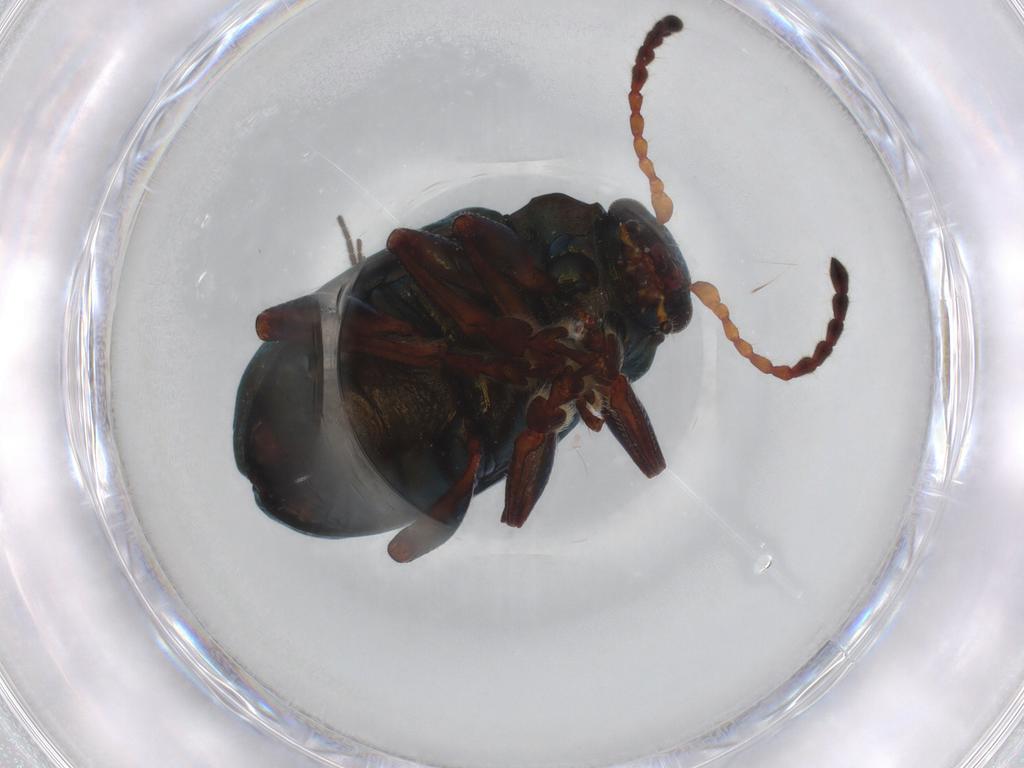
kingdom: Animalia
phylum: Arthropoda
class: Insecta
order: Coleoptera
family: Chrysomelidae
